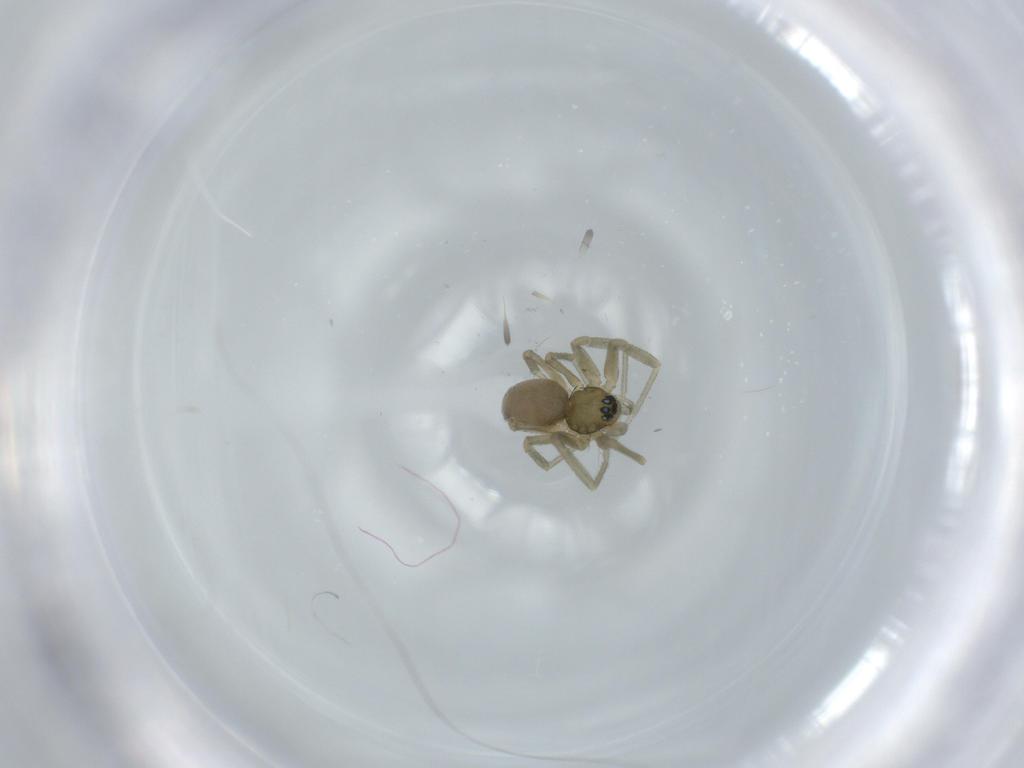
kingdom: Animalia
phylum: Arthropoda
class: Arachnida
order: Araneae
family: Linyphiidae
